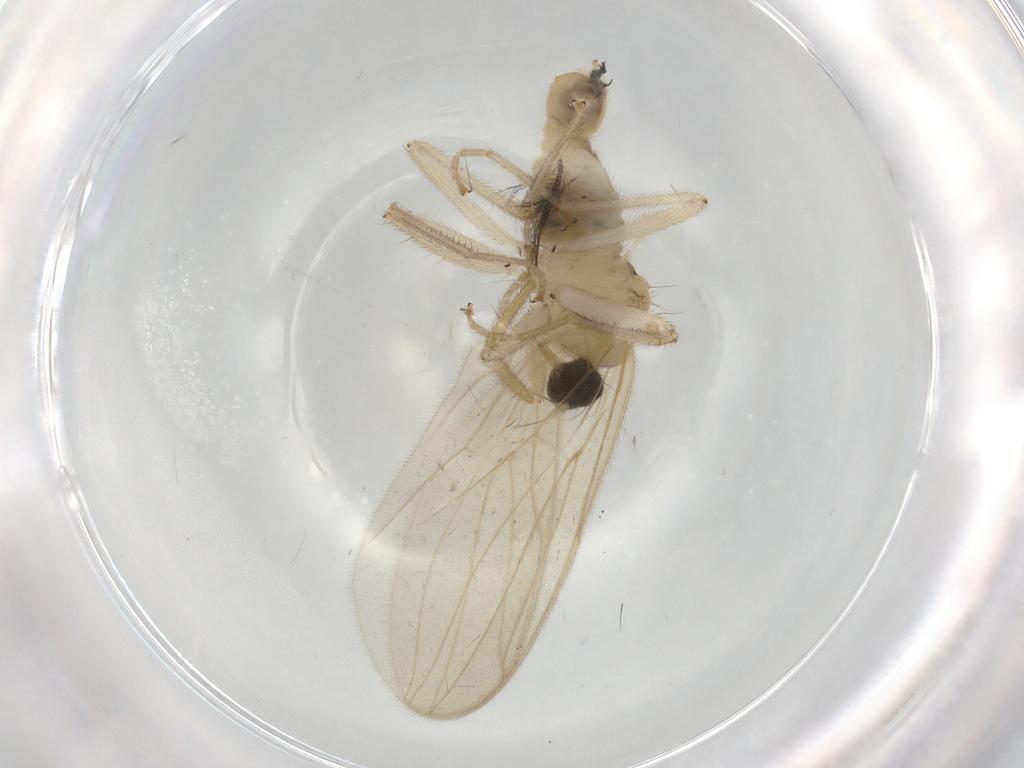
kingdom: Animalia
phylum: Arthropoda
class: Insecta
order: Diptera
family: Hybotidae
